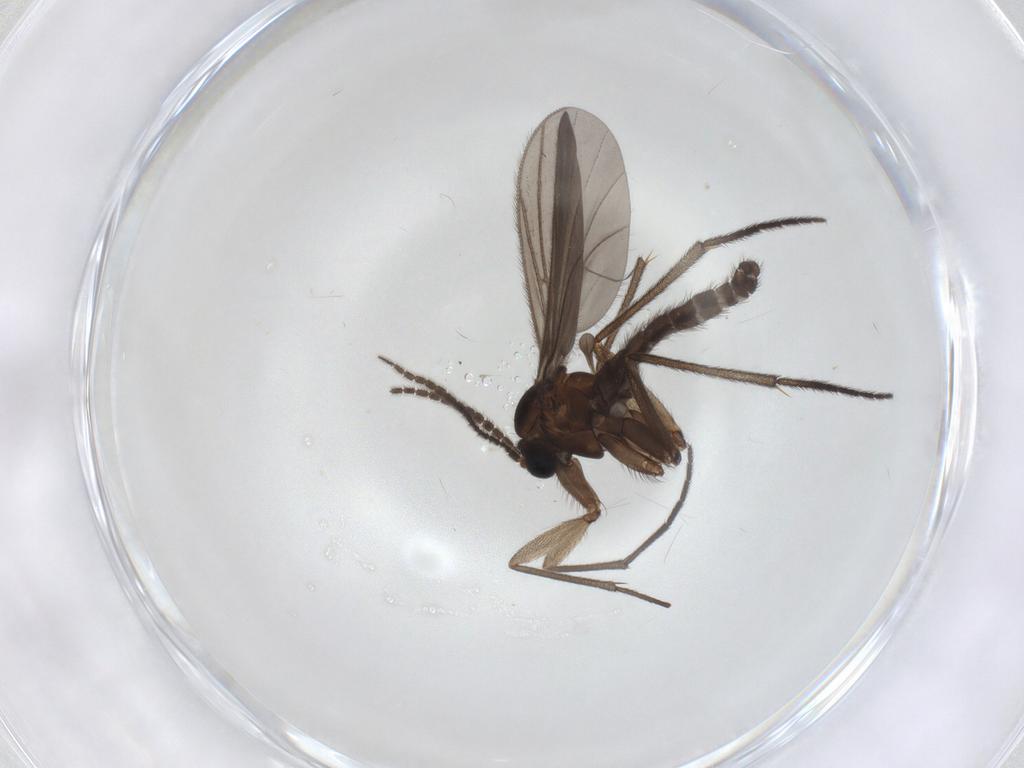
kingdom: Animalia
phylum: Arthropoda
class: Insecta
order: Diptera
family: Sciaridae
